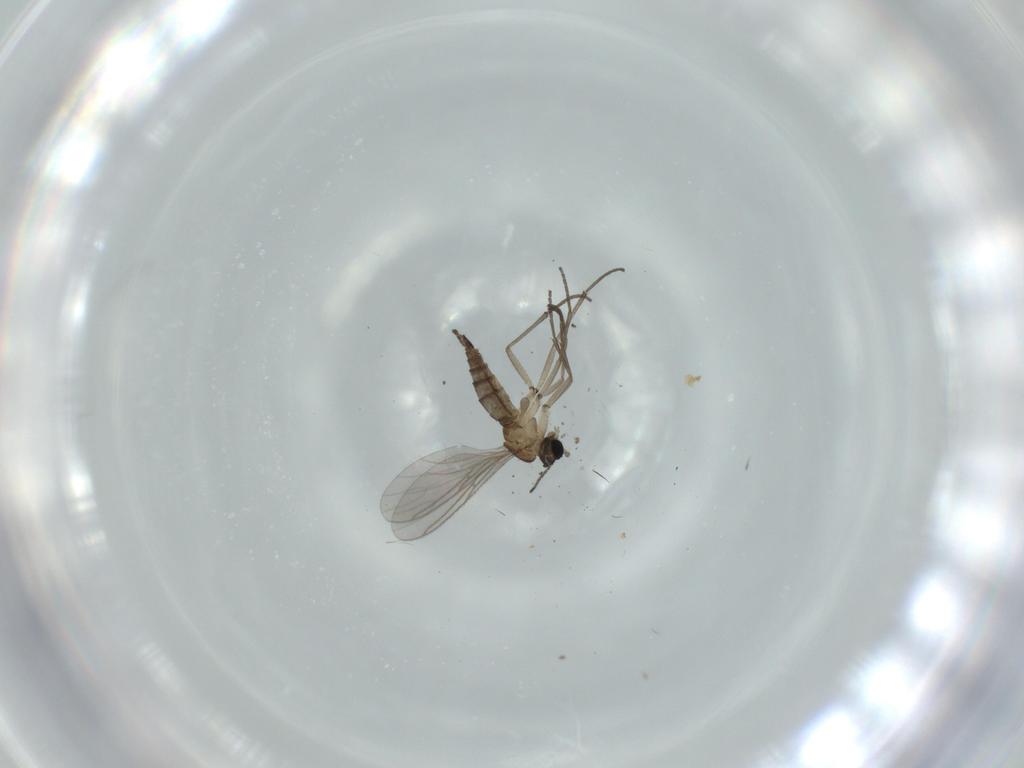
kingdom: Animalia
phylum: Arthropoda
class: Insecta
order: Diptera
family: Sciaridae
